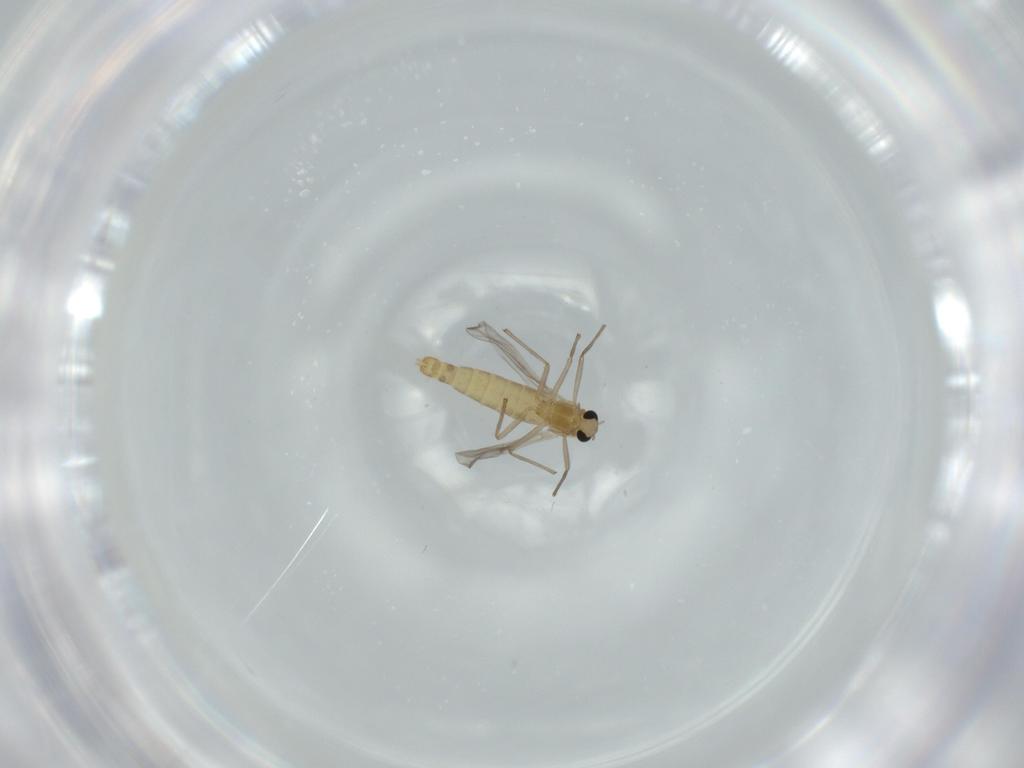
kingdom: Animalia
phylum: Arthropoda
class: Insecta
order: Diptera
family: Chironomidae
